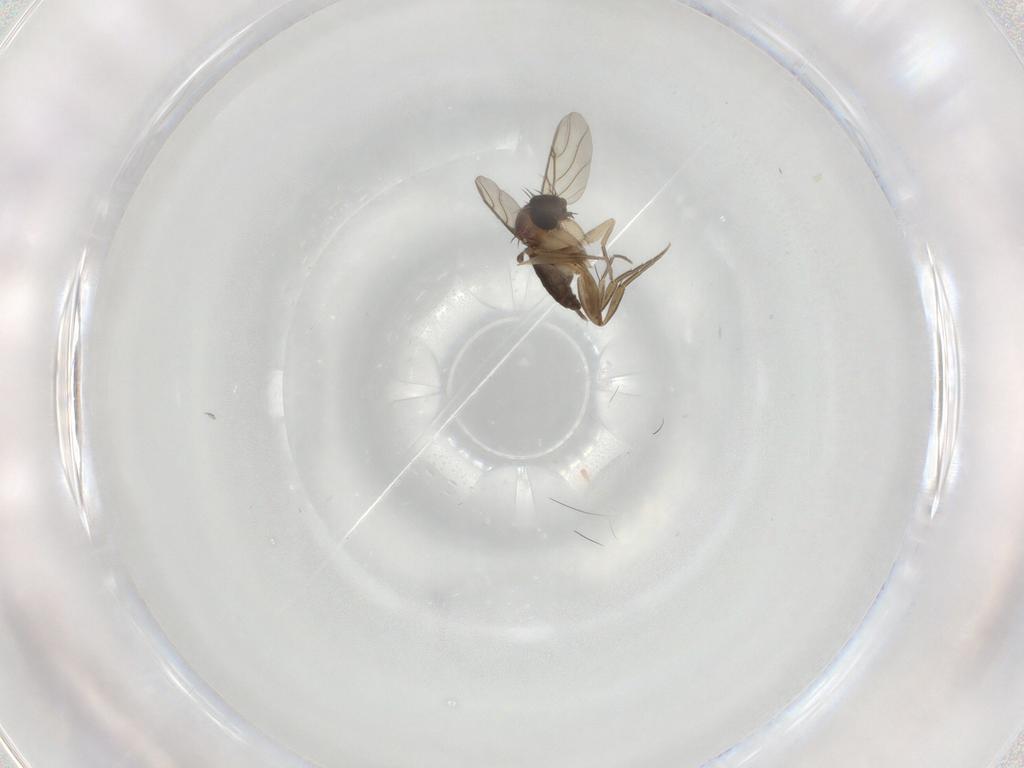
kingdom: Animalia
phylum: Arthropoda
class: Insecta
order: Diptera
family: Phoridae
